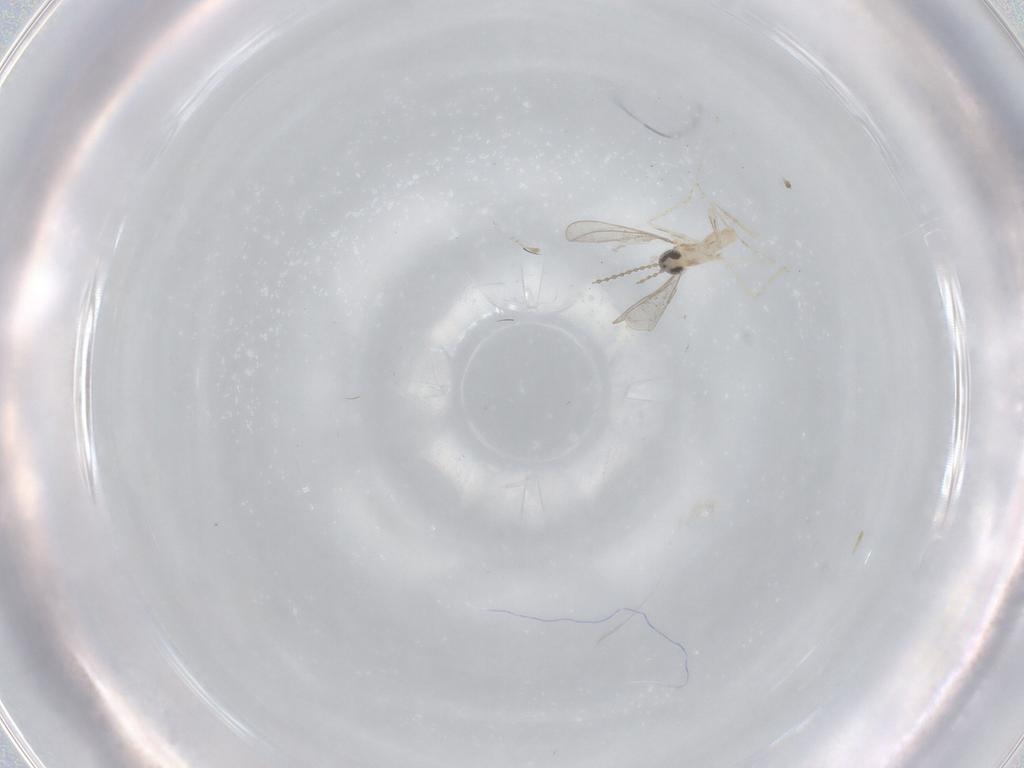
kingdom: Animalia
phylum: Arthropoda
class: Insecta
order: Diptera
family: Cecidomyiidae
